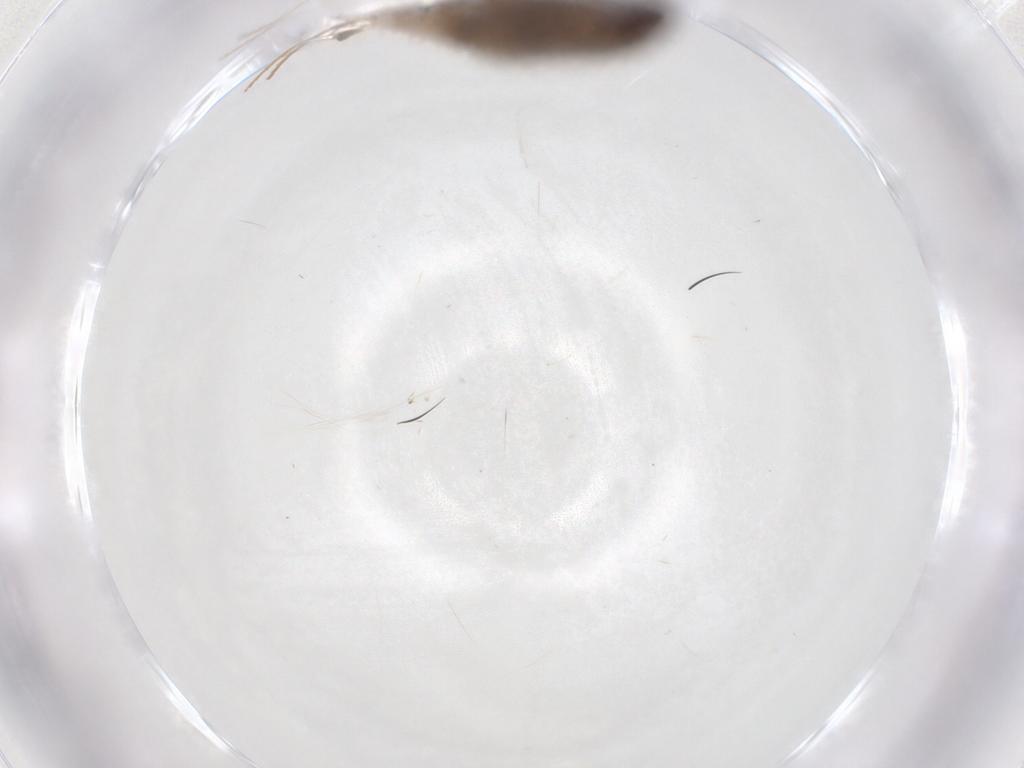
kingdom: Animalia
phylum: Arthropoda
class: Insecta
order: Lepidoptera
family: Coleophoridae
